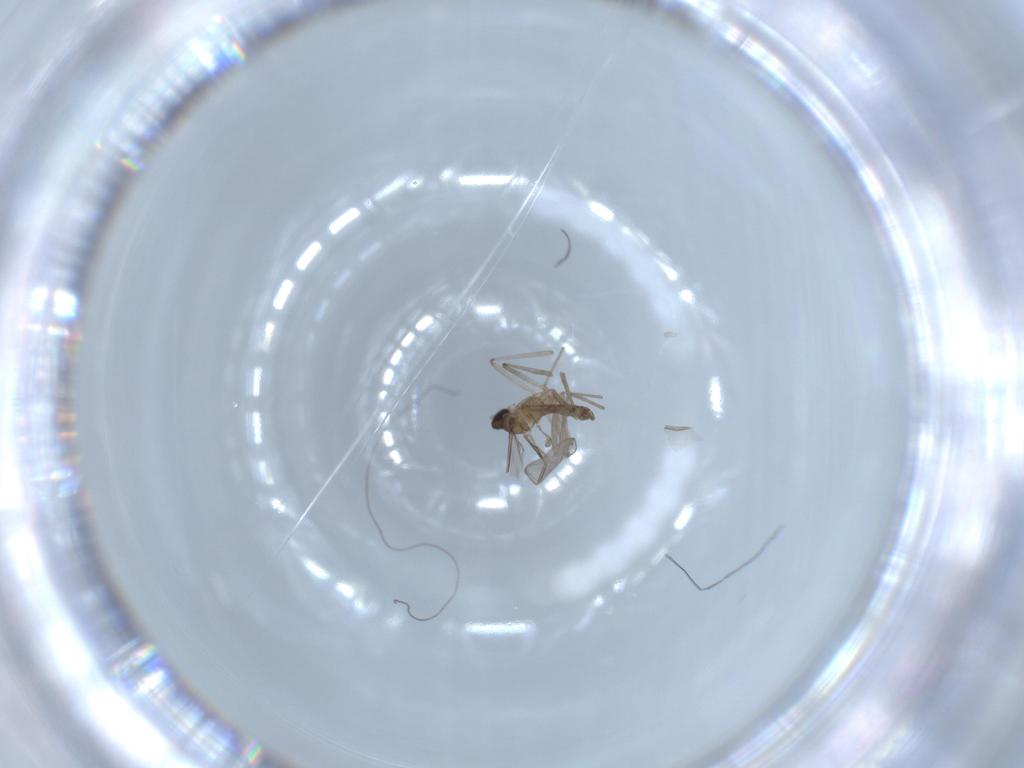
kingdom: Animalia
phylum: Arthropoda
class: Insecta
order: Diptera
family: Cecidomyiidae
